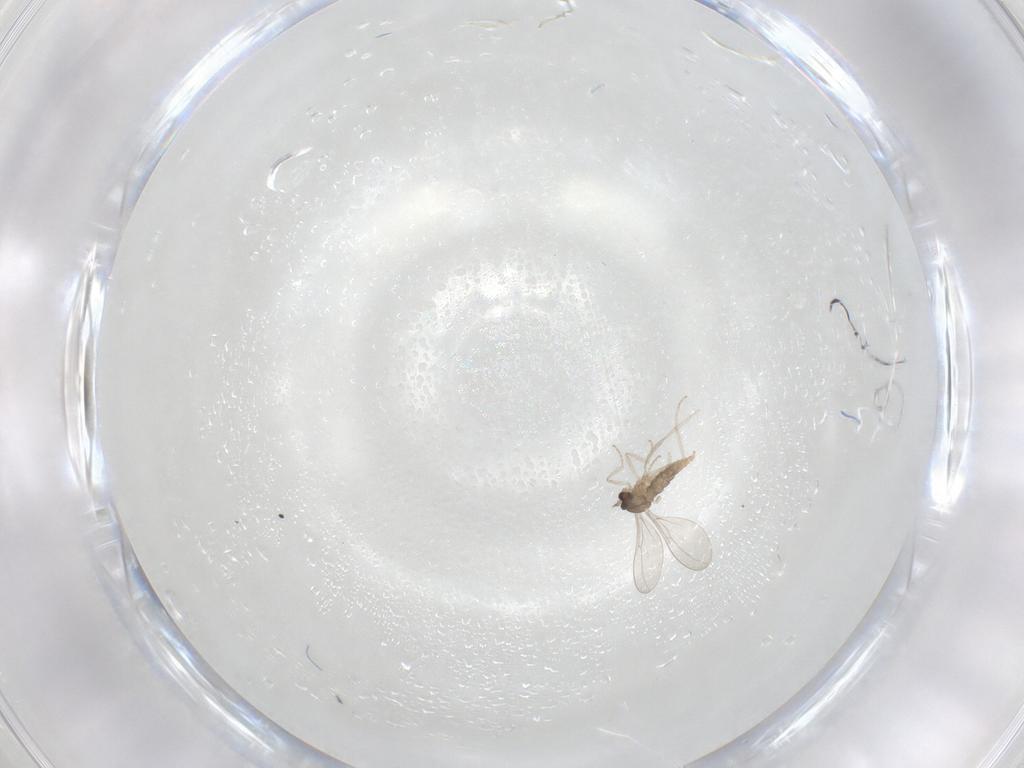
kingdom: Animalia
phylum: Arthropoda
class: Insecta
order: Diptera
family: Cecidomyiidae
